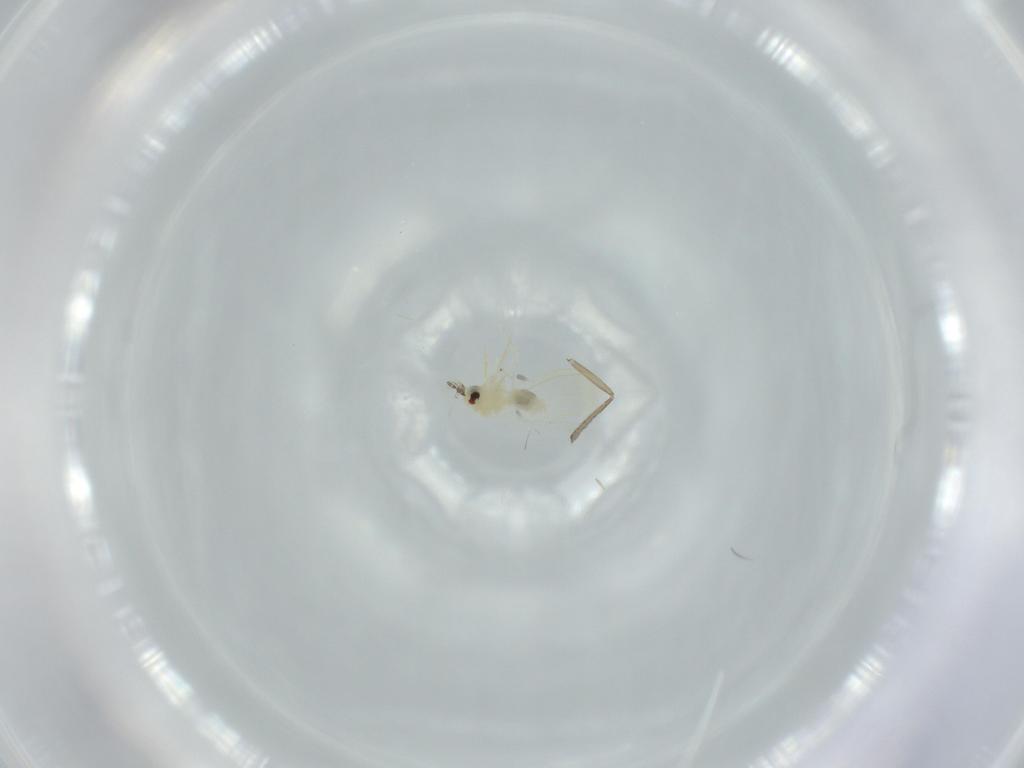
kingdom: Animalia
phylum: Arthropoda
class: Insecta
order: Diptera
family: Cecidomyiidae
